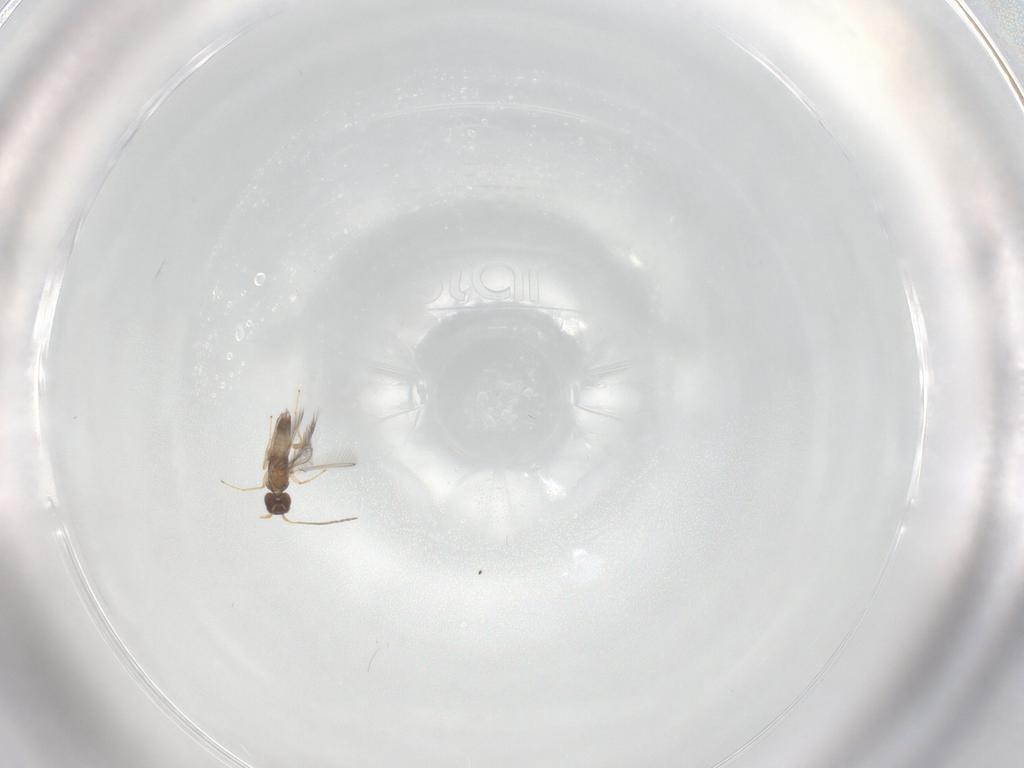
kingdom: Animalia
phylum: Arthropoda
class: Insecta
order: Hymenoptera
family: Mymaridae
